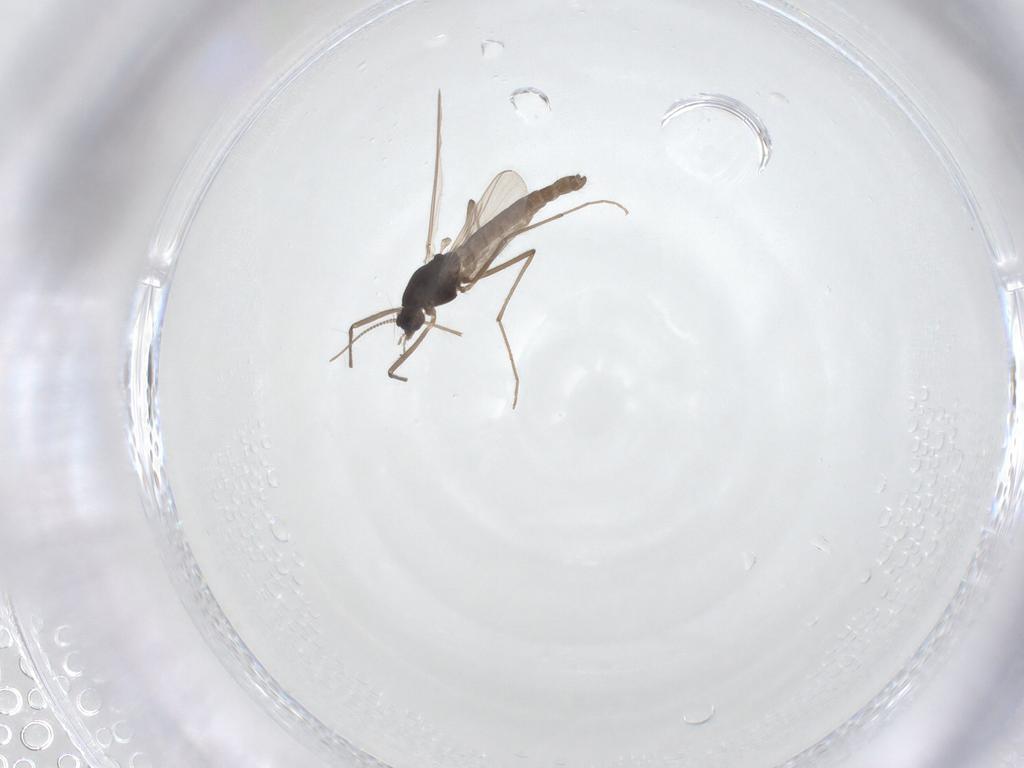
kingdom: Animalia
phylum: Arthropoda
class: Insecta
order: Diptera
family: Chironomidae
